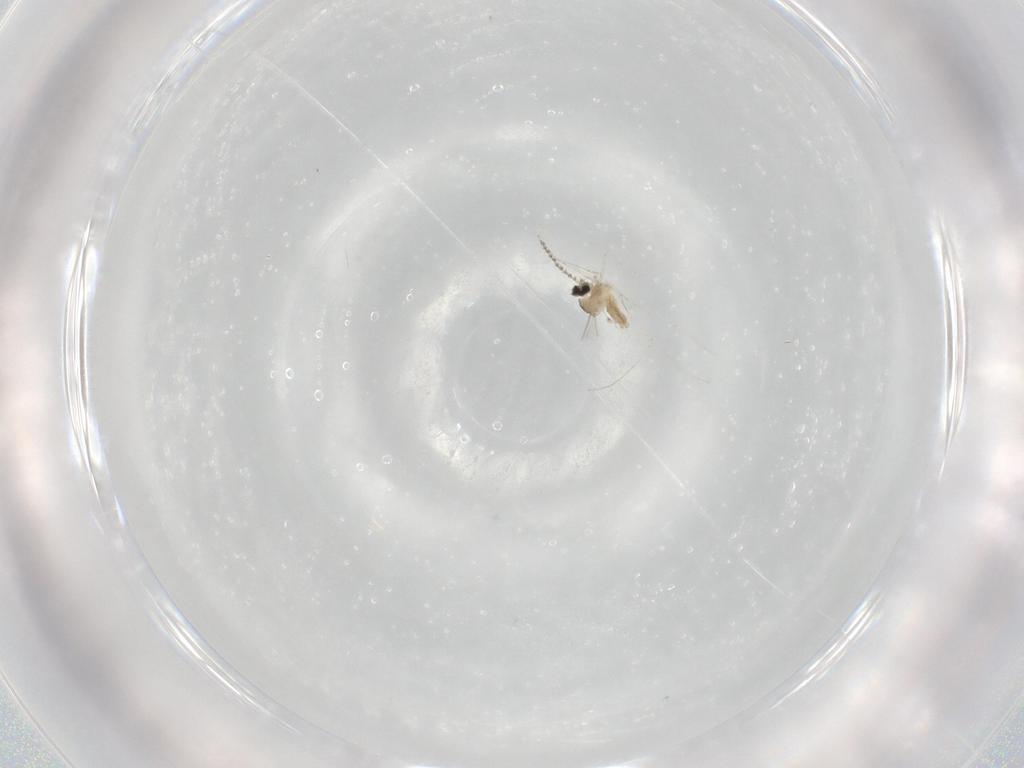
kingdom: Animalia
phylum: Arthropoda
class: Insecta
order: Diptera
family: Cecidomyiidae
